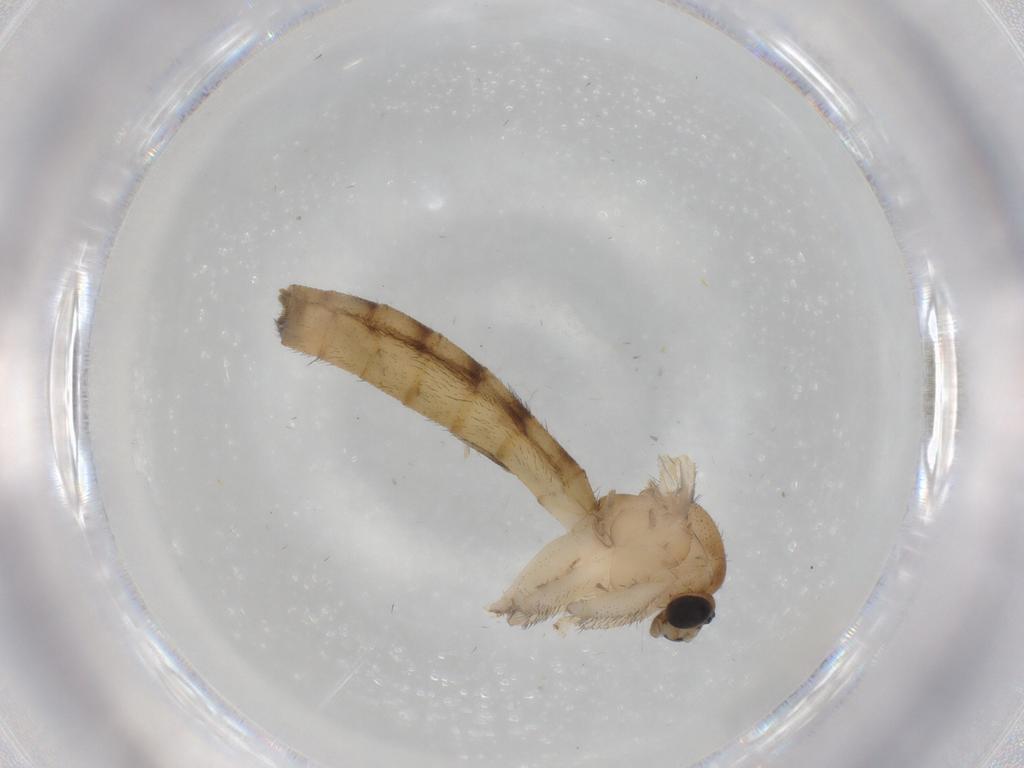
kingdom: Animalia
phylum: Arthropoda
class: Insecta
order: Diptera
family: Keroplatidae
